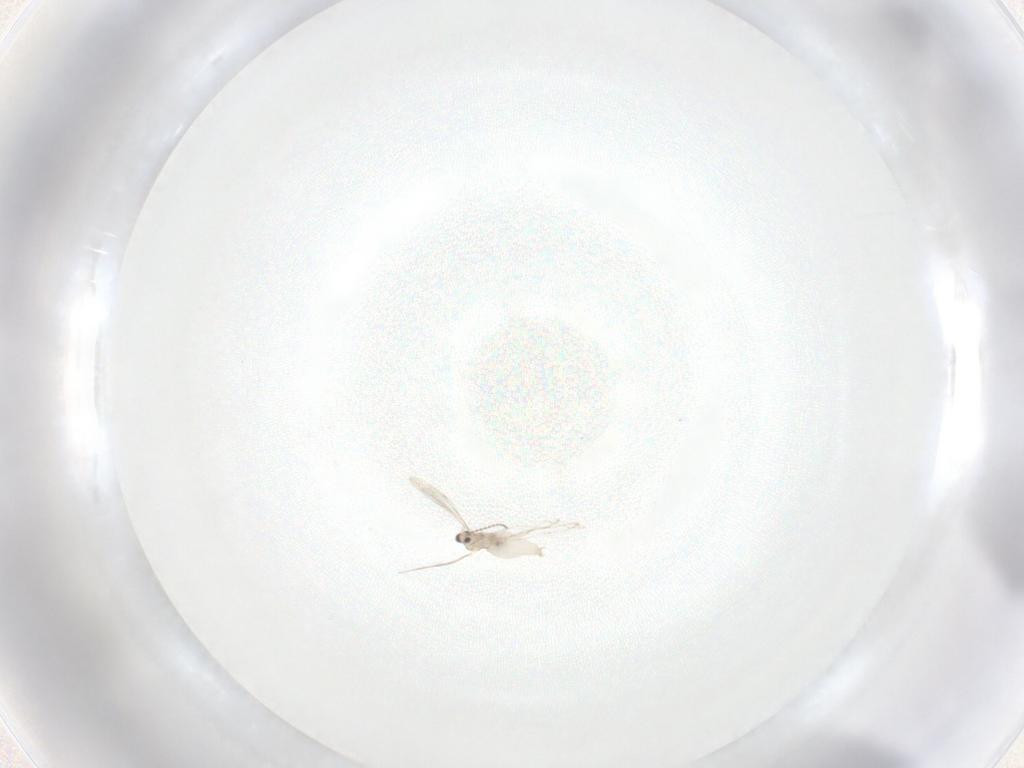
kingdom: Animalia
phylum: Arthropoda
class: Insecta
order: Diptera
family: Cecidomyiidae
